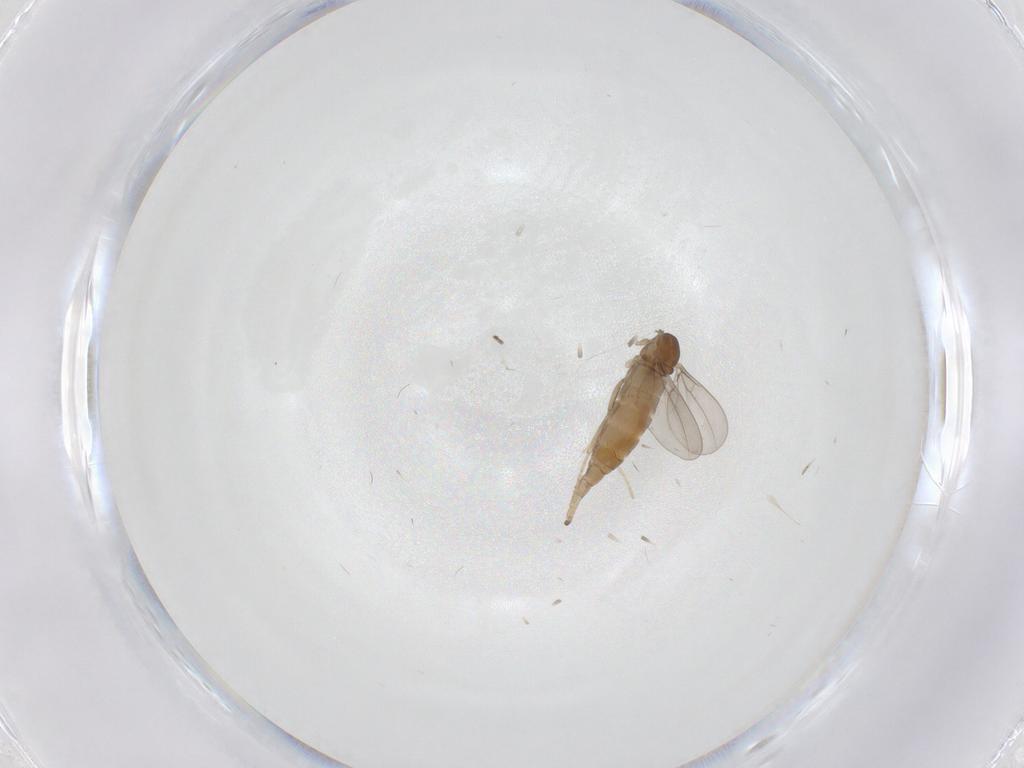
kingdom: Animalia
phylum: Arthropoda
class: Insecta
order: Diptera
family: Cecidomyiidae
